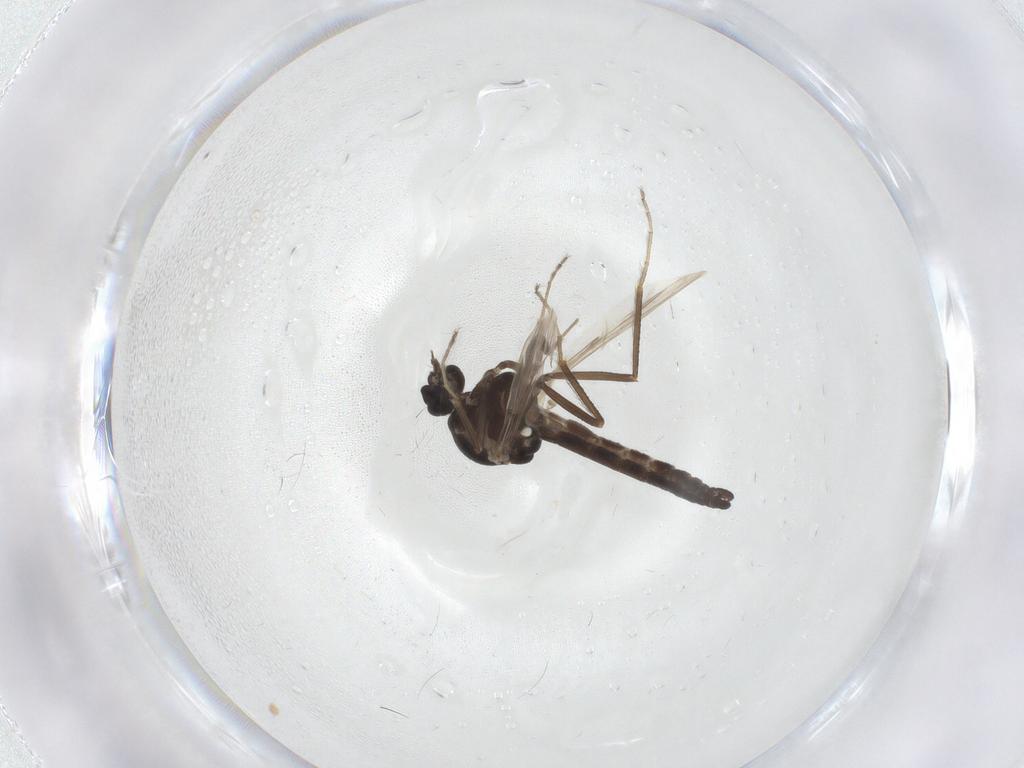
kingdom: Animalia
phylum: Arthropoda
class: Insecta
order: Diptera
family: Ceratopogonidae
